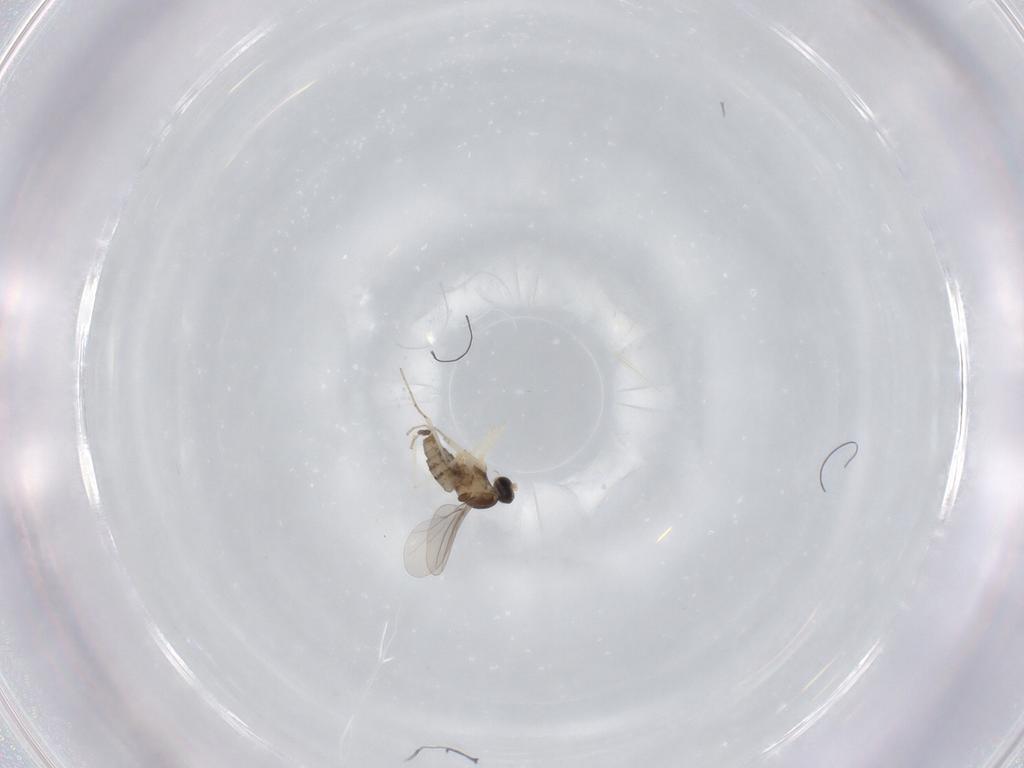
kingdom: Animalia
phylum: Arthropoda
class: Insecta
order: Diptera
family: Cecidomyiidae
